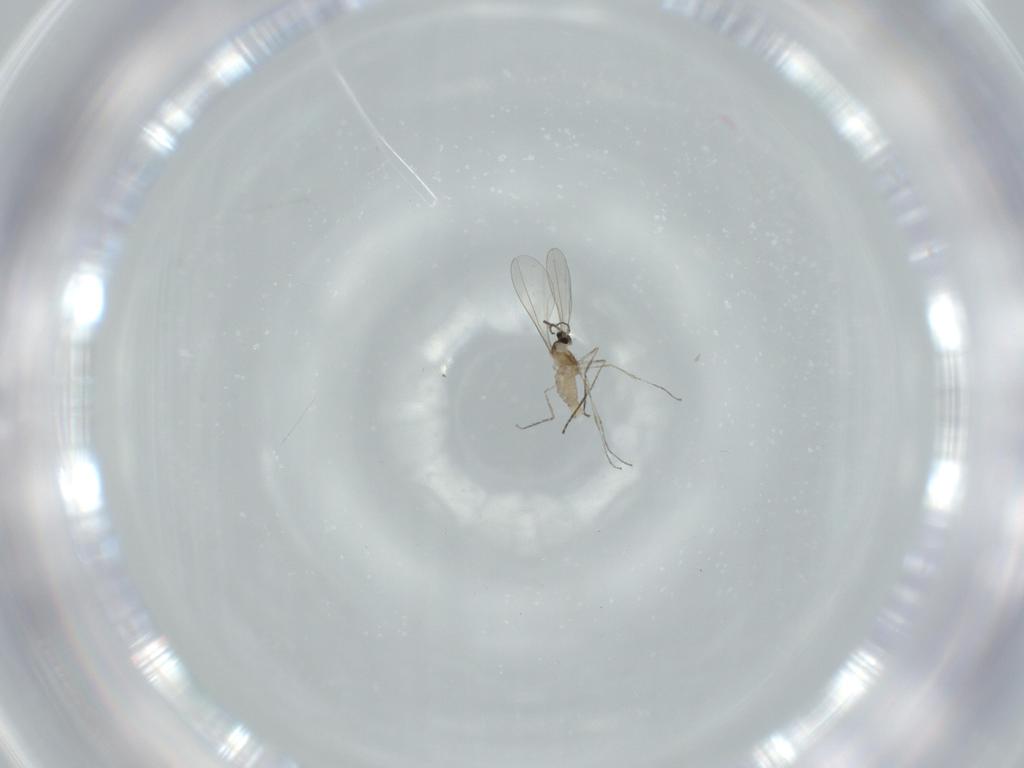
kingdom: Animalia
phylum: Arthropoda
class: Insecta
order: Diptera
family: Cecidomyiidae
